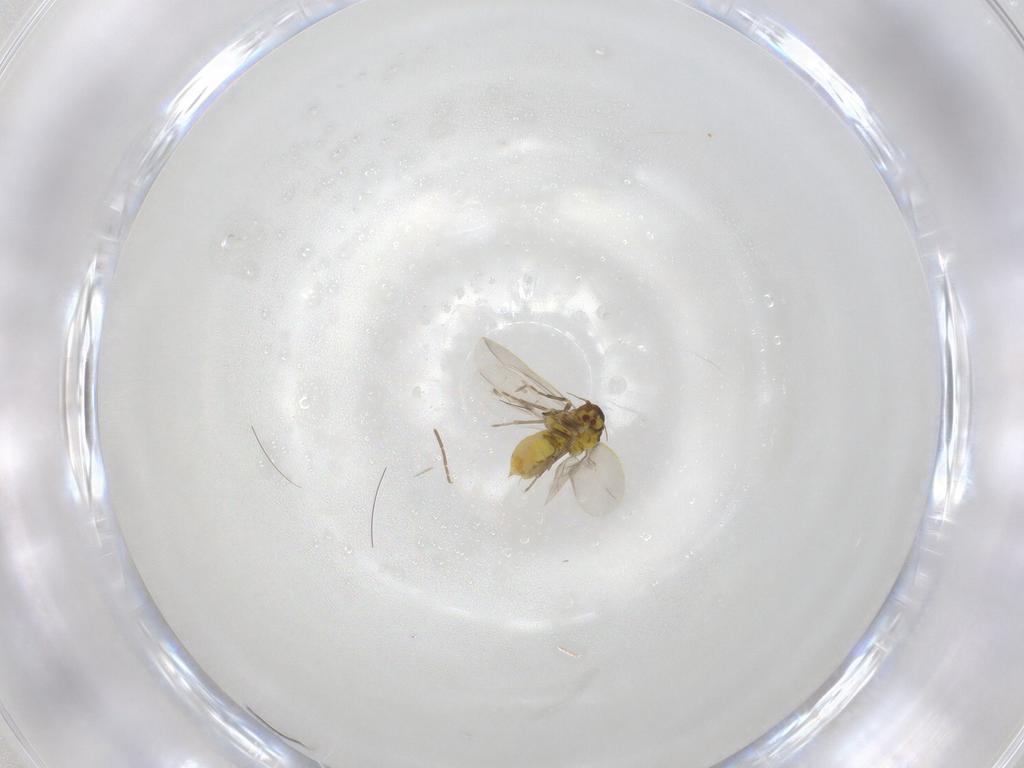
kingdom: Animalia
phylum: Arthropoda
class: Insecta
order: Hemiptera
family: Aleyrodidae
